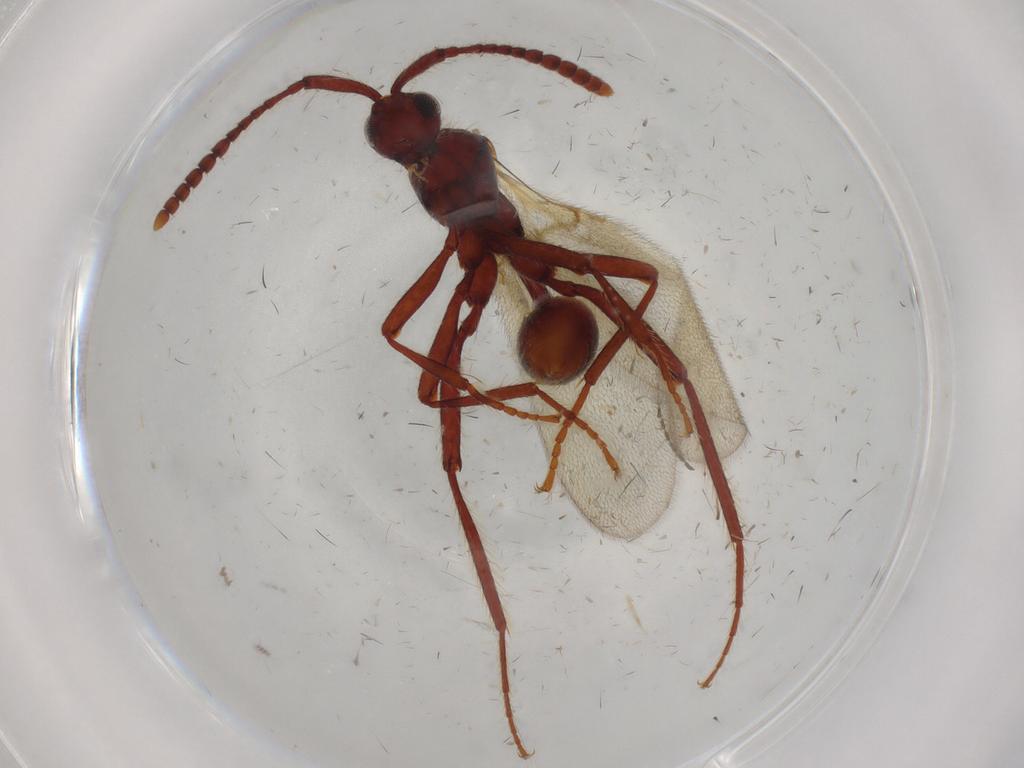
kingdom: Animalia
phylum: Arthropoda
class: Insecta
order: Hymenoptera
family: Diapriidae
